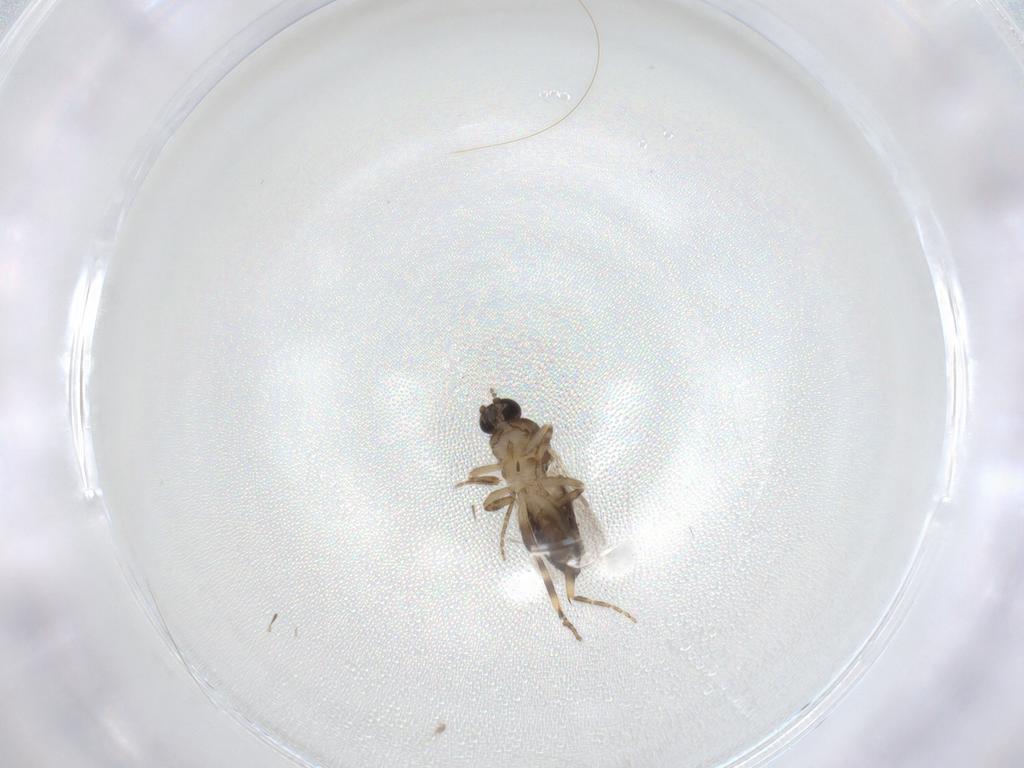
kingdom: Animalia
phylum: Arthropoda
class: Insecta
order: Diptera
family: Ceratopogonidae
